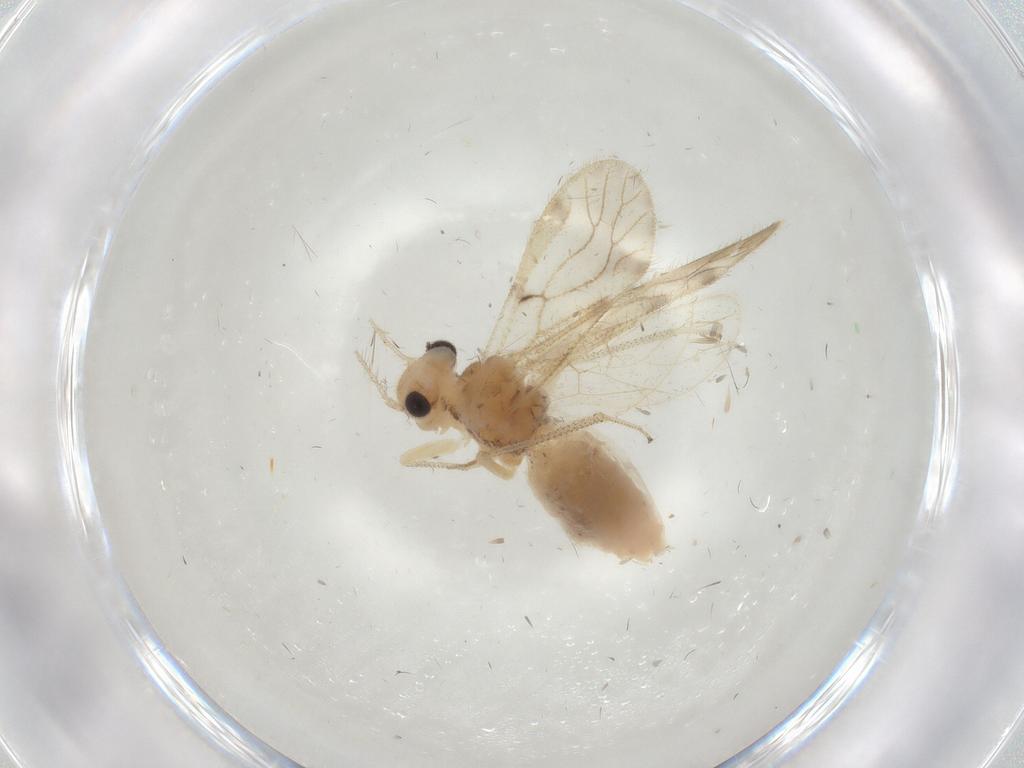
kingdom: Animalia
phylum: Arthropoda
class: Insecta
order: Psocodea
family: Pseudocaeciliidae
